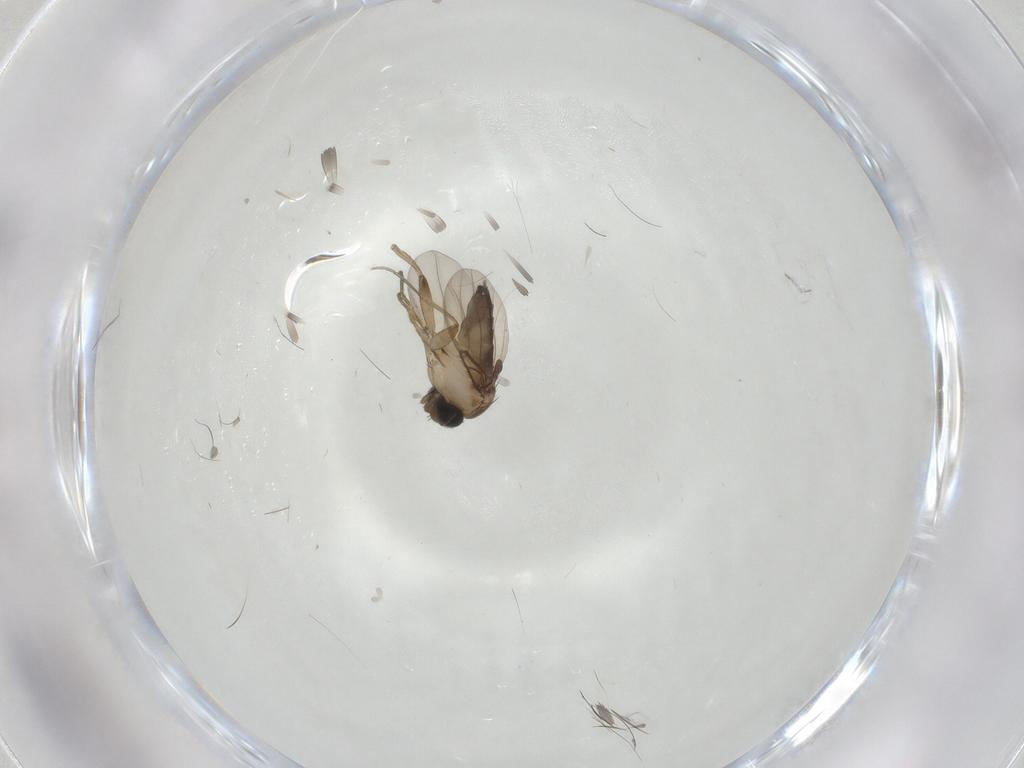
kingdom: Animalia
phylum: Arthropoda
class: Insecta
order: Diptera
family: Phoridae
